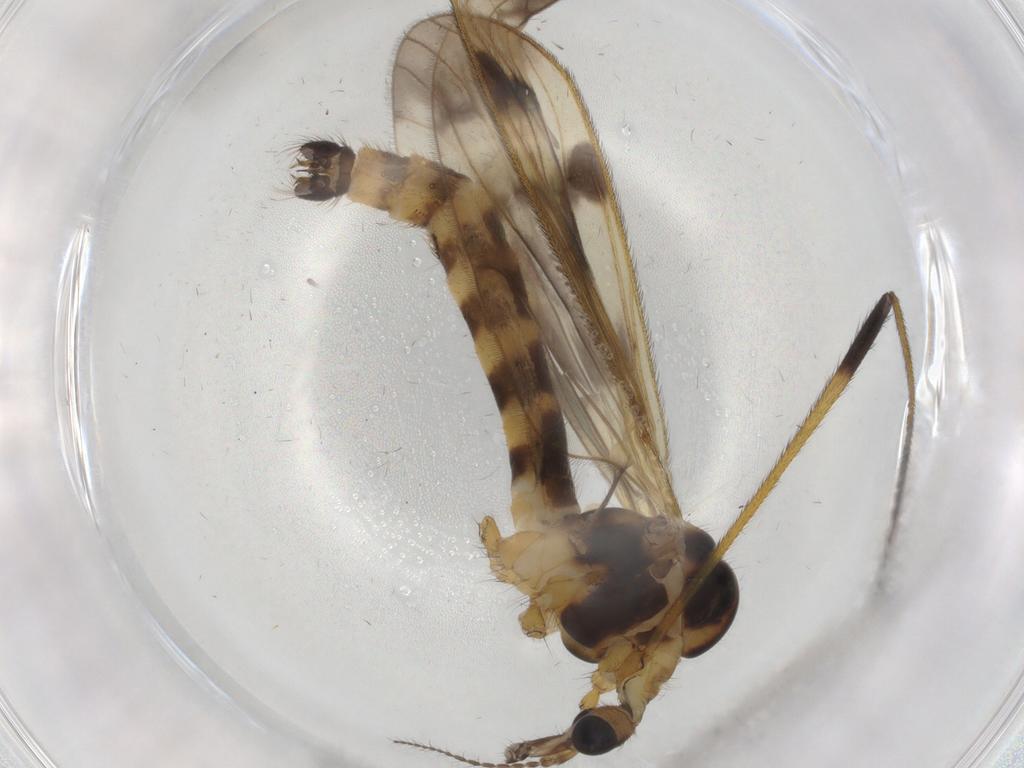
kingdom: Animalia
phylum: Arthropoda
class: Insecta
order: Diptera
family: Limoniidae
